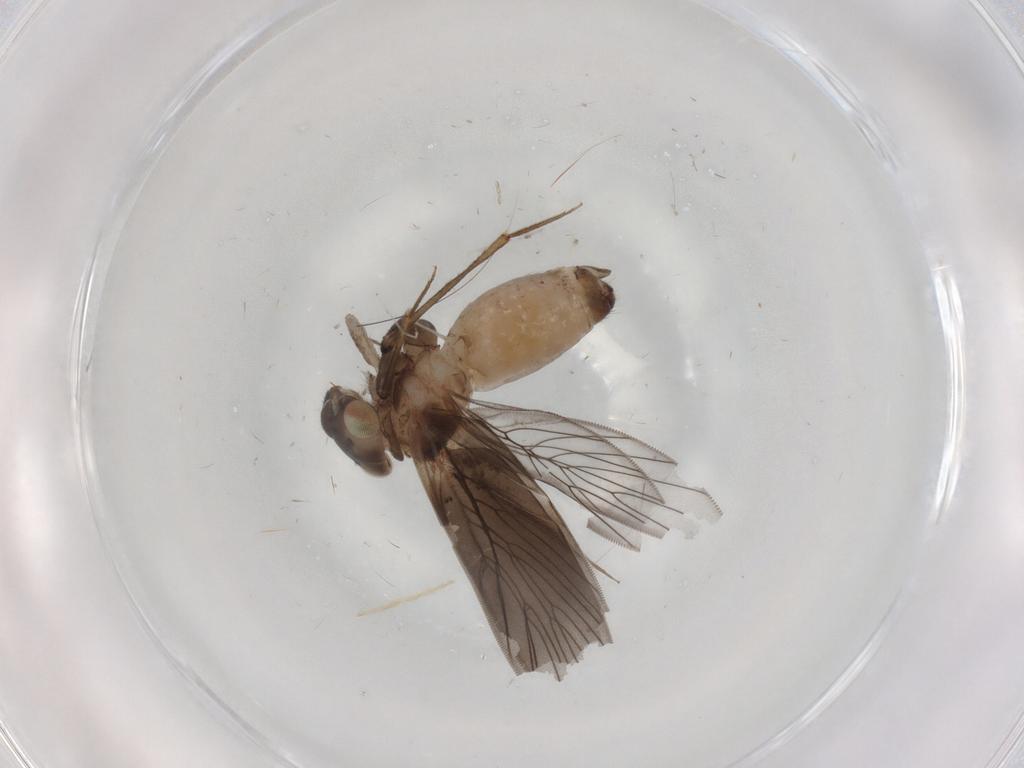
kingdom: Animalia
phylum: Arthropoda
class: Insecta
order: Psocodea
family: Lepidopsocidae
